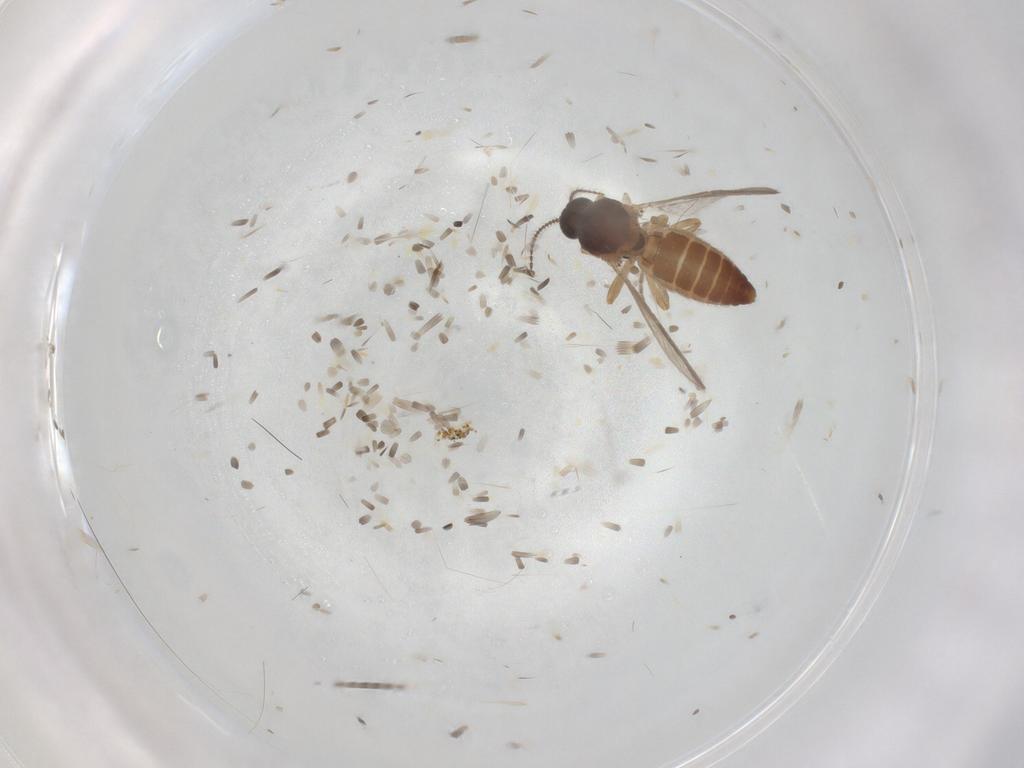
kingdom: Animalia
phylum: Arthropoda
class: Insecta
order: Diptera
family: Ceratopogonidae
